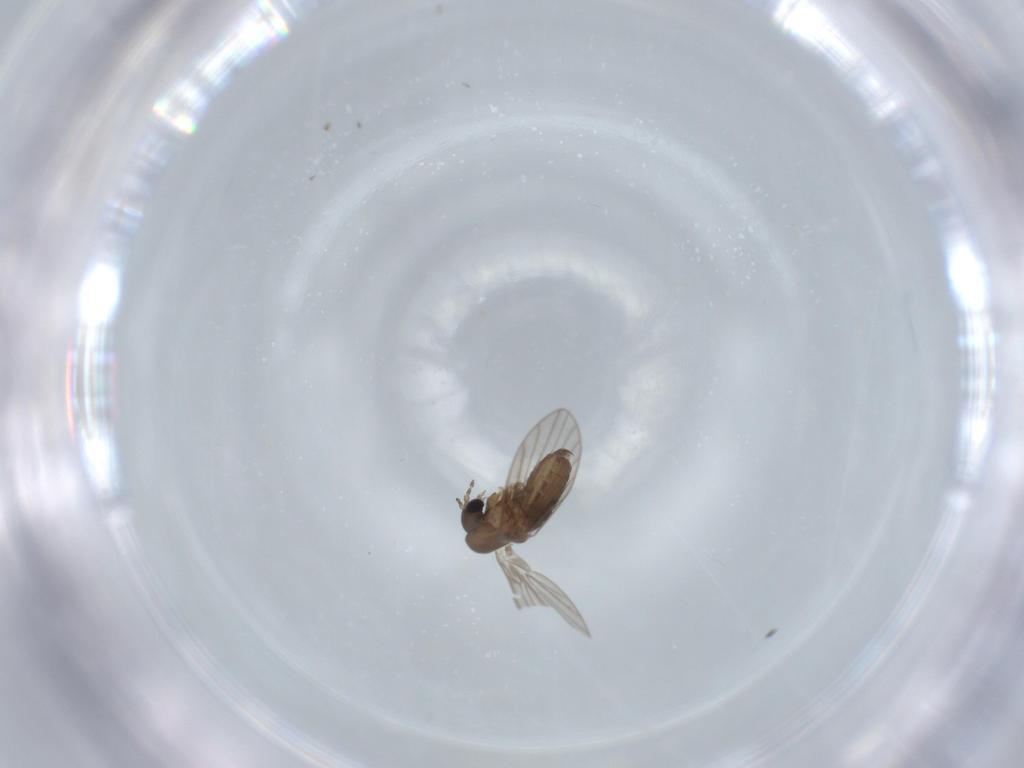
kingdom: Animalia
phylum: Arthropoda
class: Insecta
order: Diptera
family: Psychodidae
